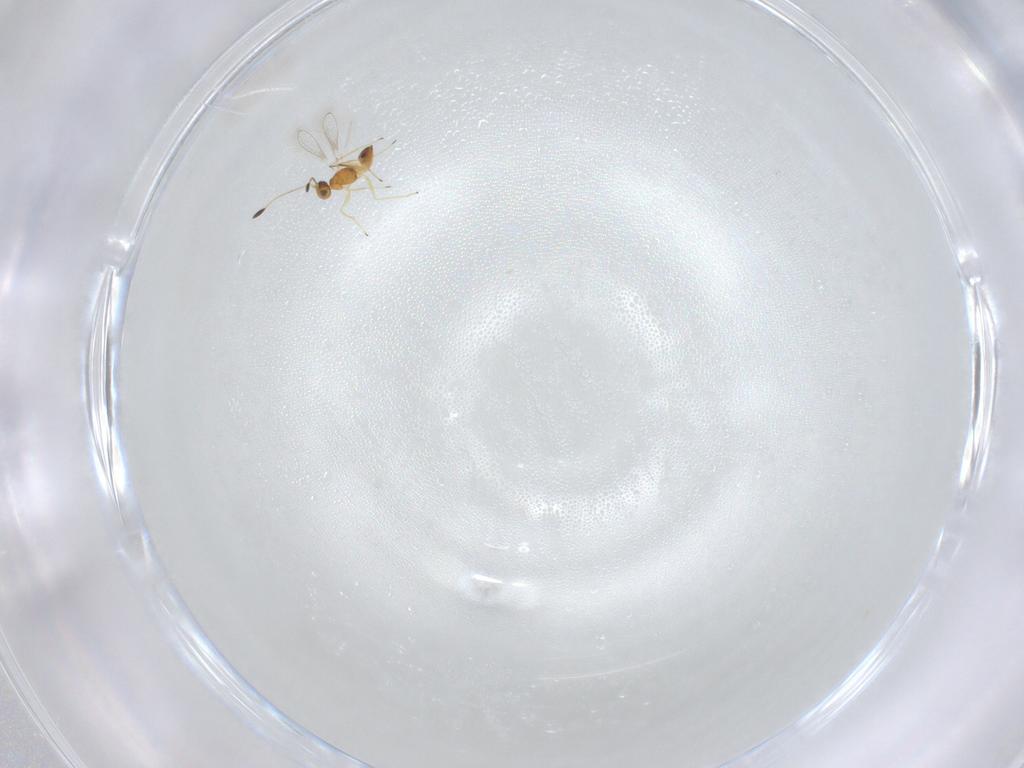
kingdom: Animalia
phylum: Arthropoda
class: Insecta
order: Hymenoptera
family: Mymaridae
